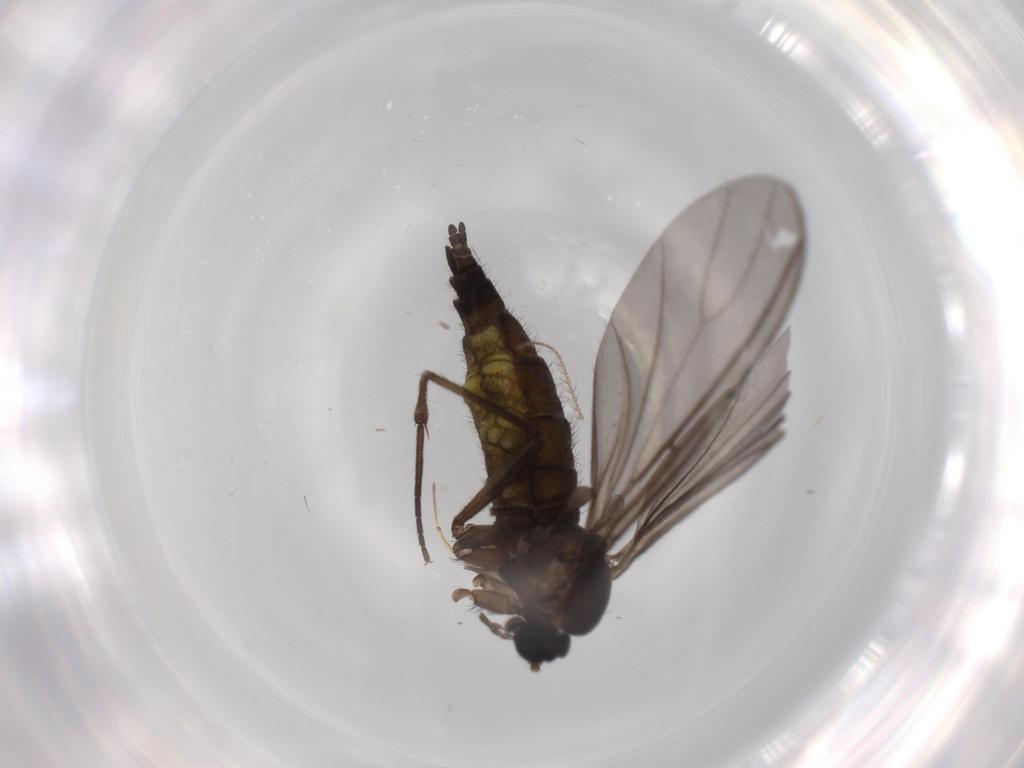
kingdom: Animalia
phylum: Arthropoda
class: Insecta
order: Diptera
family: Sciaridae
